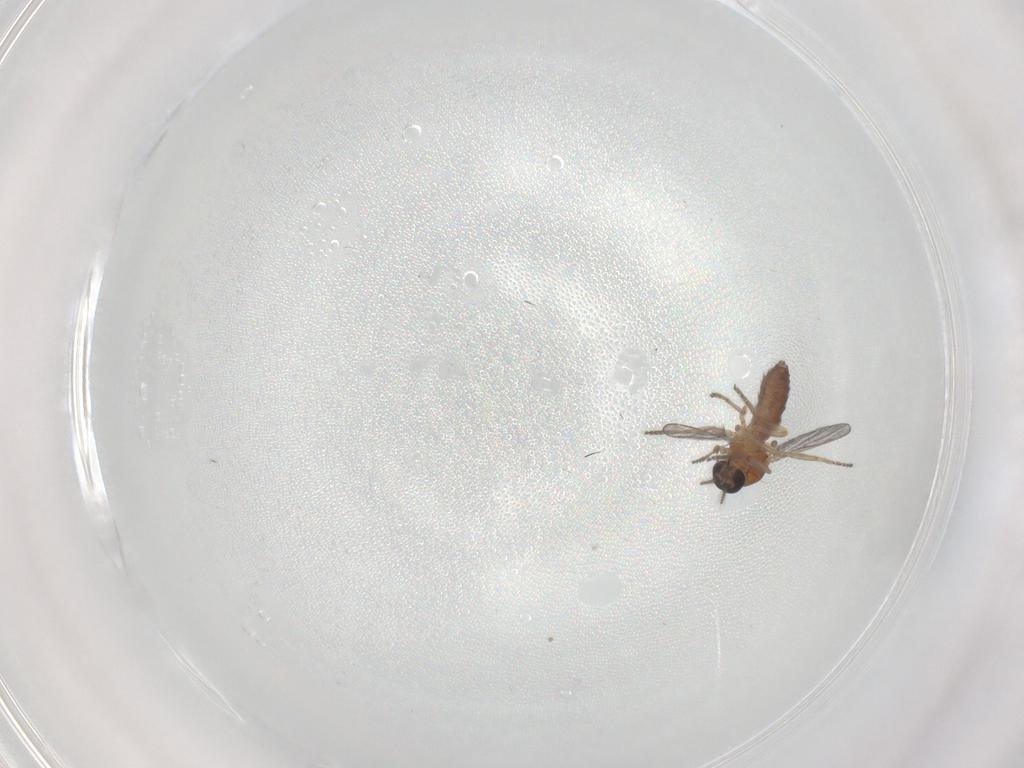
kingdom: Animalia
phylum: Arthropoda
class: Insecta
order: Diptera
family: Ceratopogonidae
